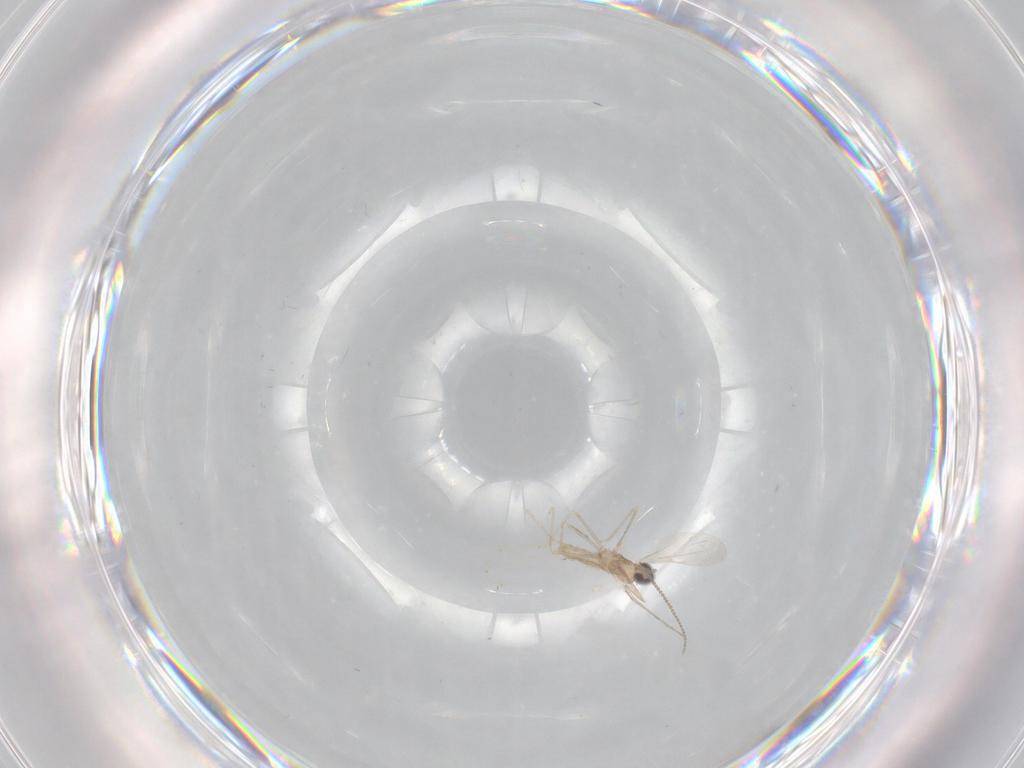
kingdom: Animalia
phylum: Arthropoda
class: Insecta
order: Diptera
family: Cecidomyiidae
